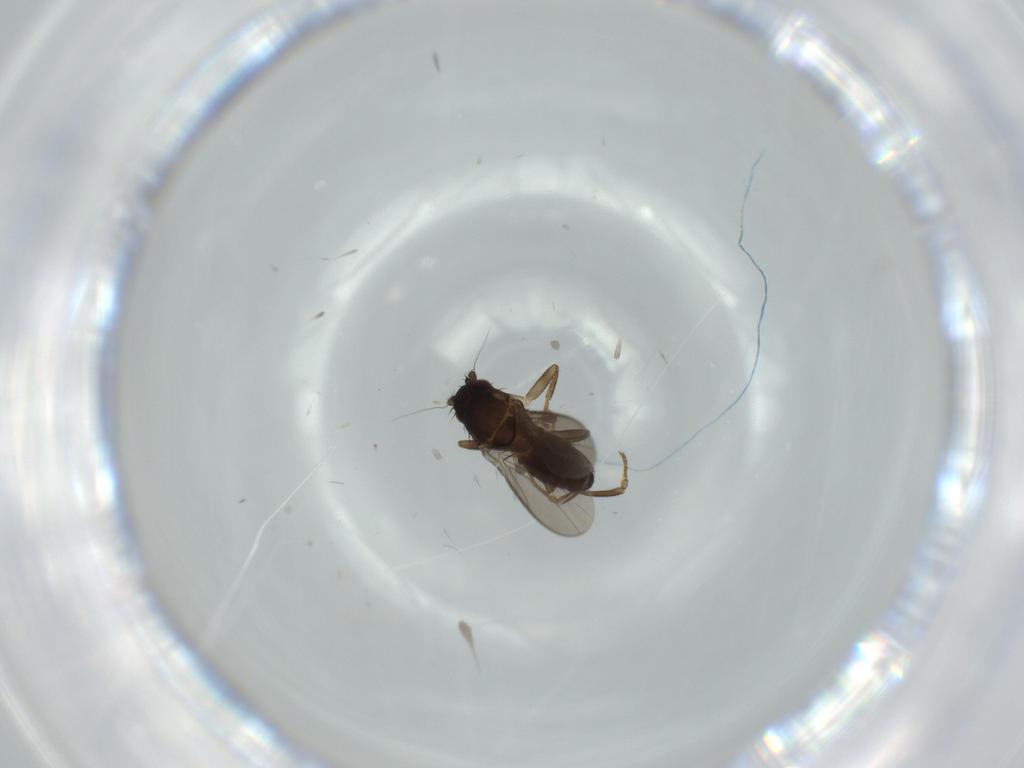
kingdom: Animalia
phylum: Arthropoda
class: Insecta
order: Diptera
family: Sphaeroceridae
